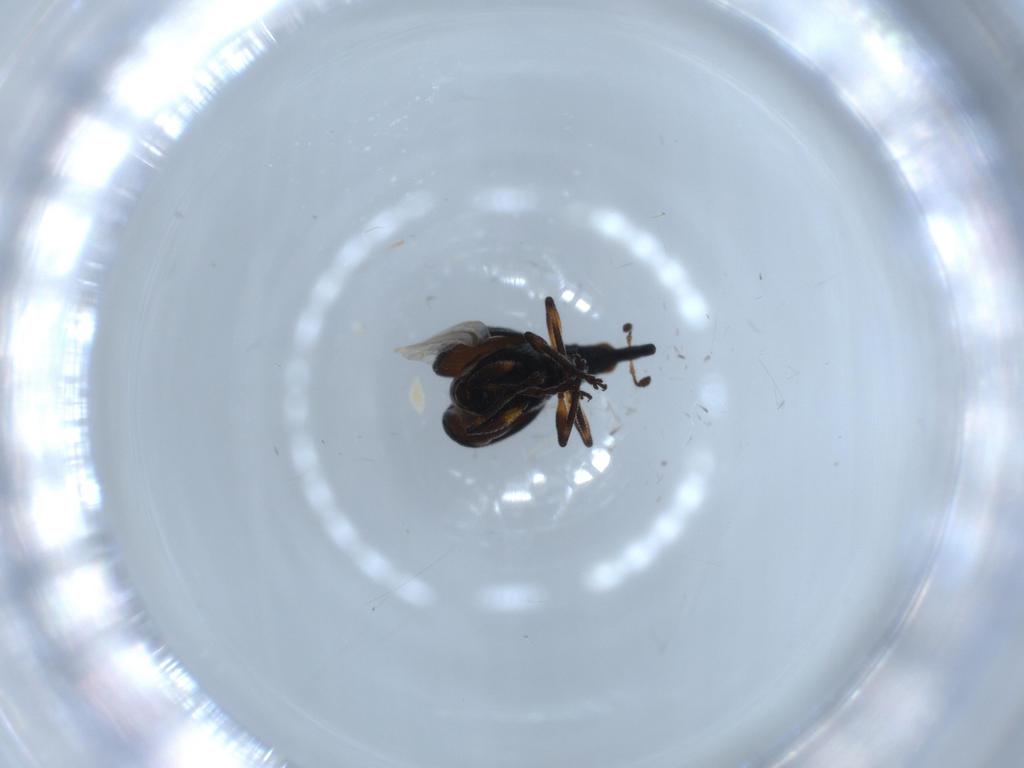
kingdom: Animalia
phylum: Arthropoda
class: Insecta
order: Coleoptera
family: Brentidae
